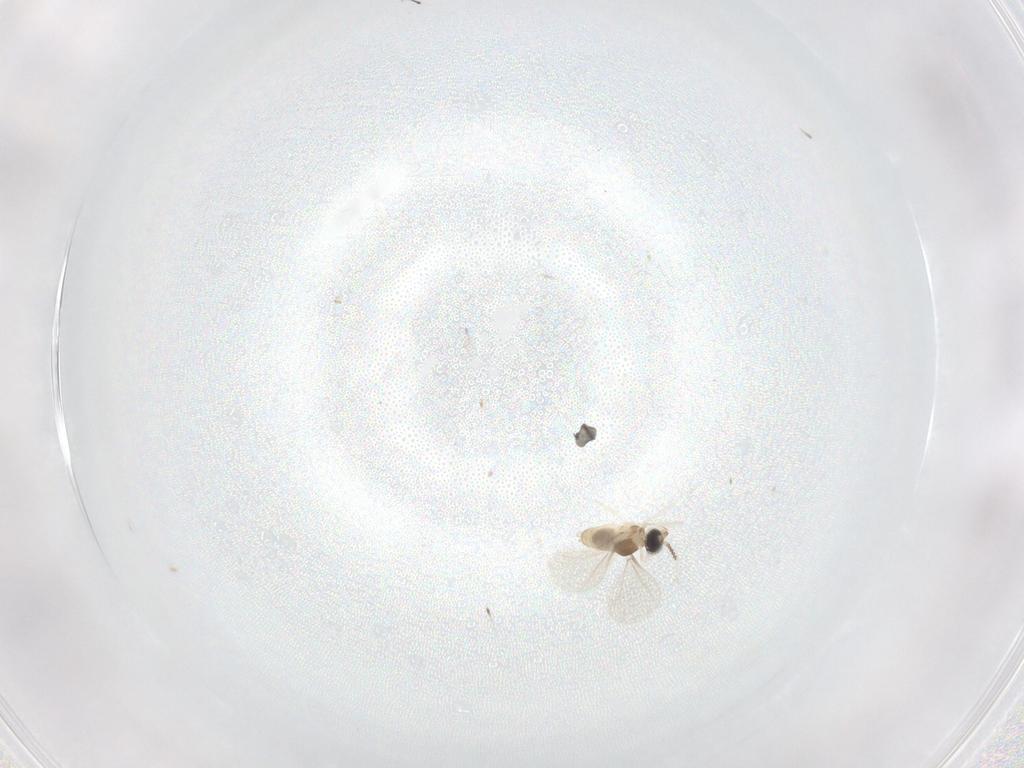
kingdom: Animalia
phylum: Arthropoda
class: Insecta
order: Diptera
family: Cecidomyiidae
